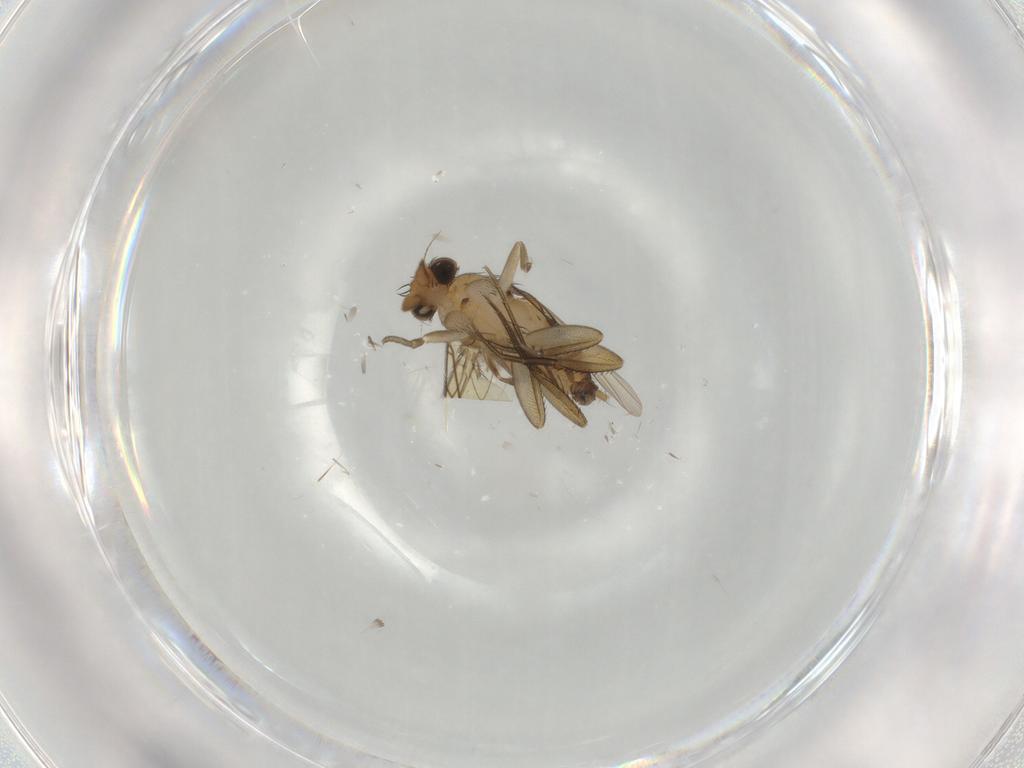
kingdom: Animalia
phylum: Arthropoda
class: Insecta
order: Diptera
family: Phoridae
